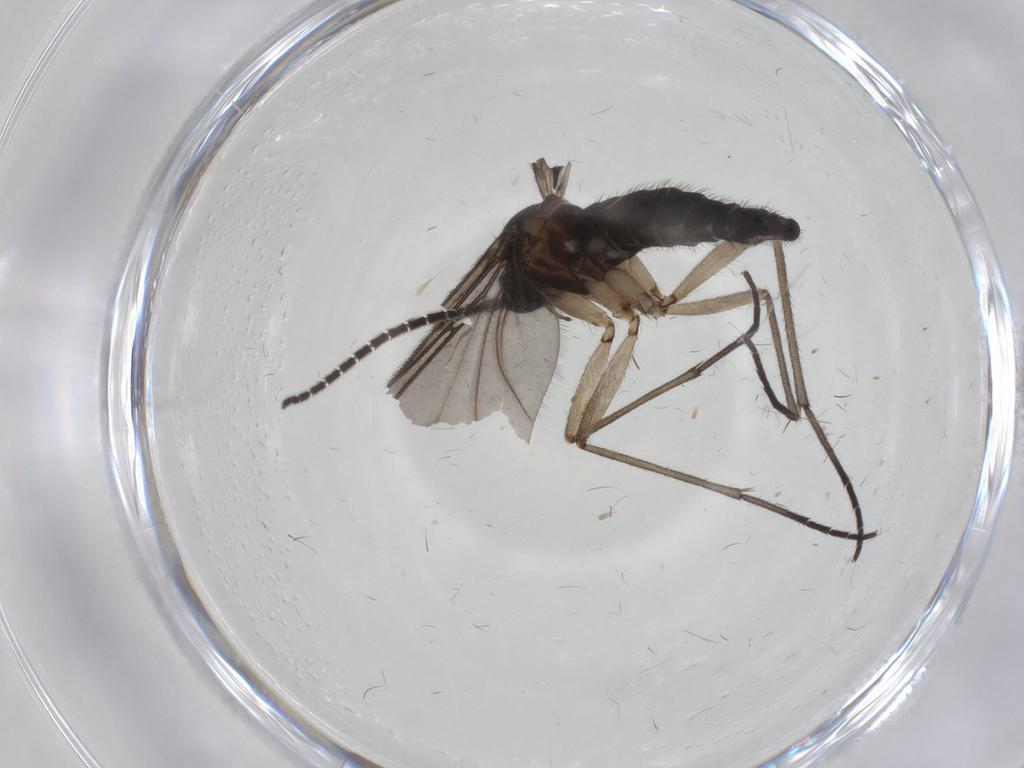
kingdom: Animalia
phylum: Arthropoda
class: Insecta
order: Diptera
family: Sciaridae
